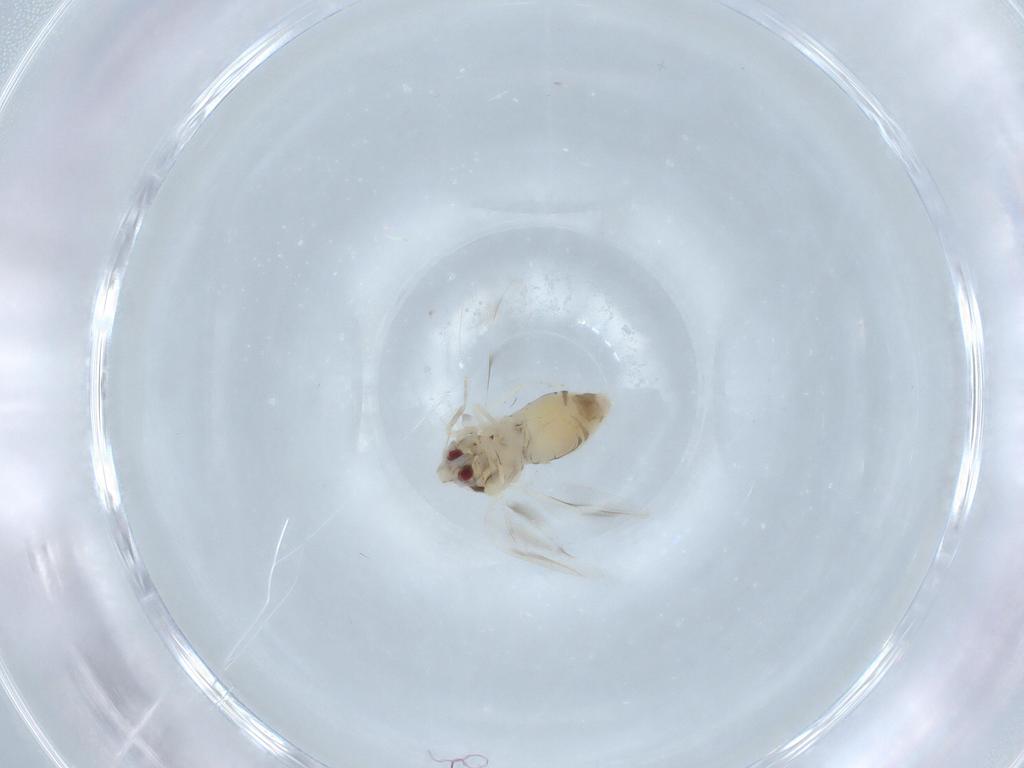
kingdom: Animalia
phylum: Arthropoda
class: Insecta
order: Hemiptera
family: Aleyrodidae
